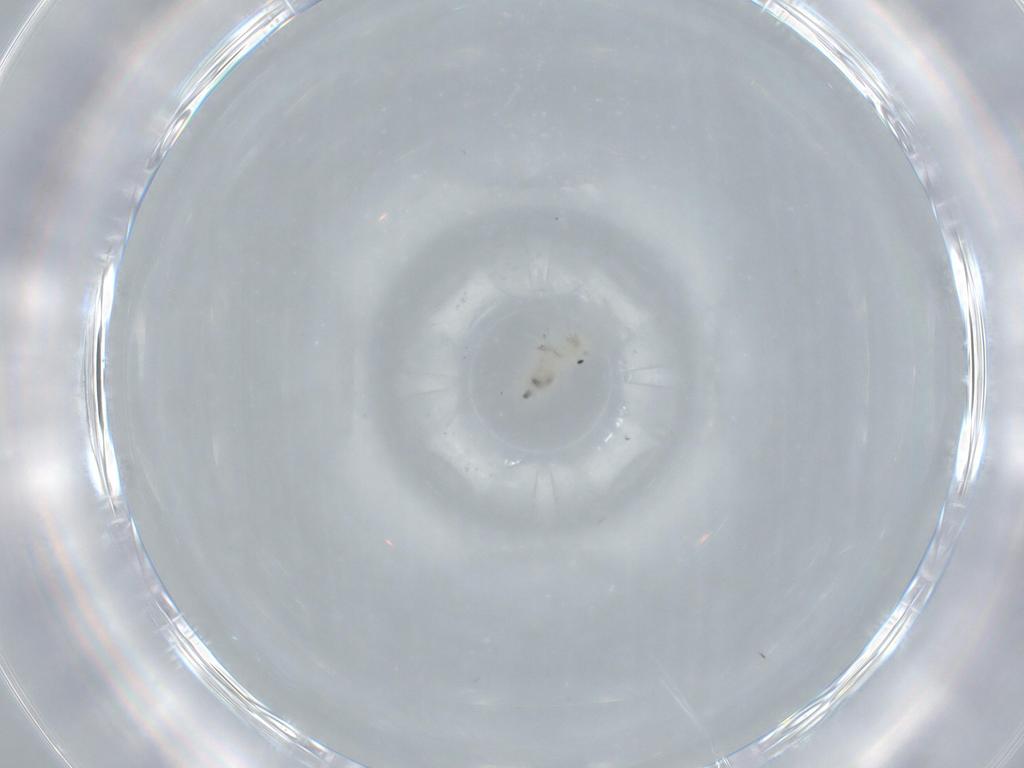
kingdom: Animalia
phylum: Arthropoda
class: Insecta
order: Psocodea
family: Caeciliusidae
